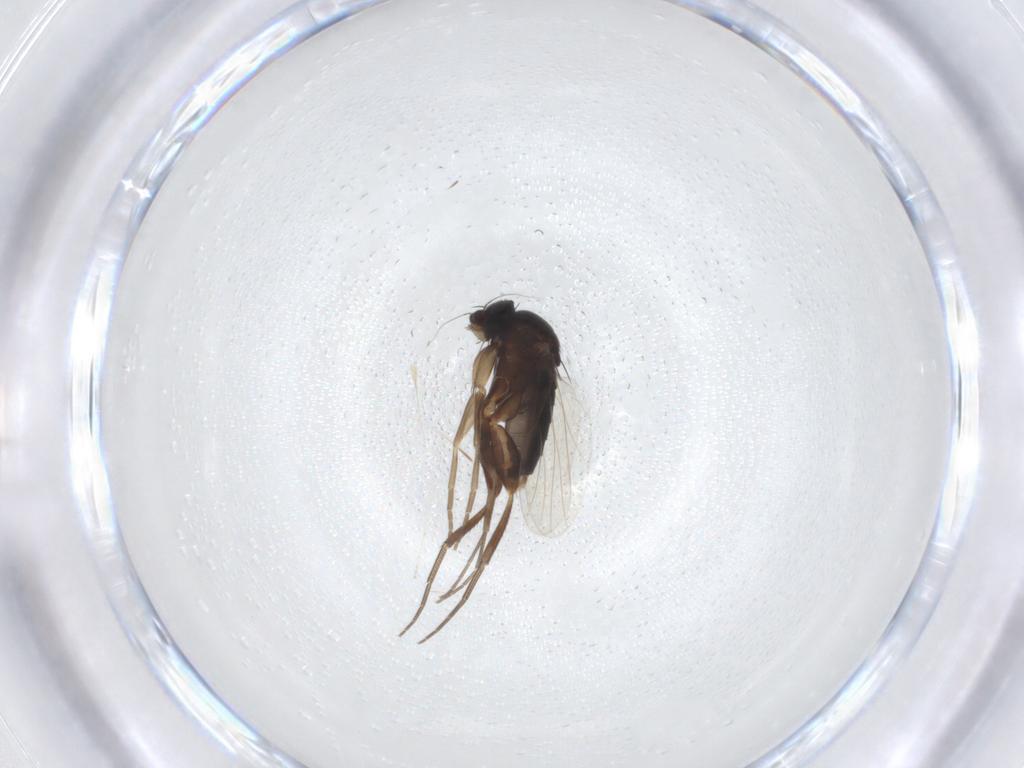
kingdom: Animalia
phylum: Arthropoda
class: Insecta
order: Diptera
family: Phoridae
